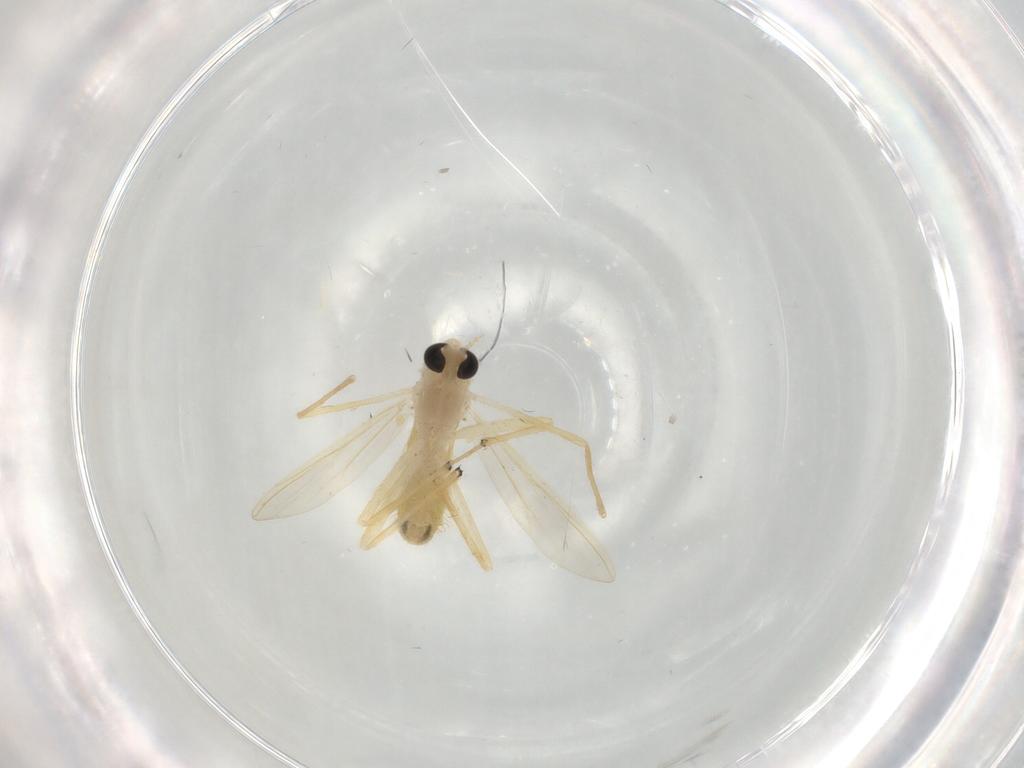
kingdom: Animalia
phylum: Arthropoda
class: Insecta
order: Diptera
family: Chironomidae
